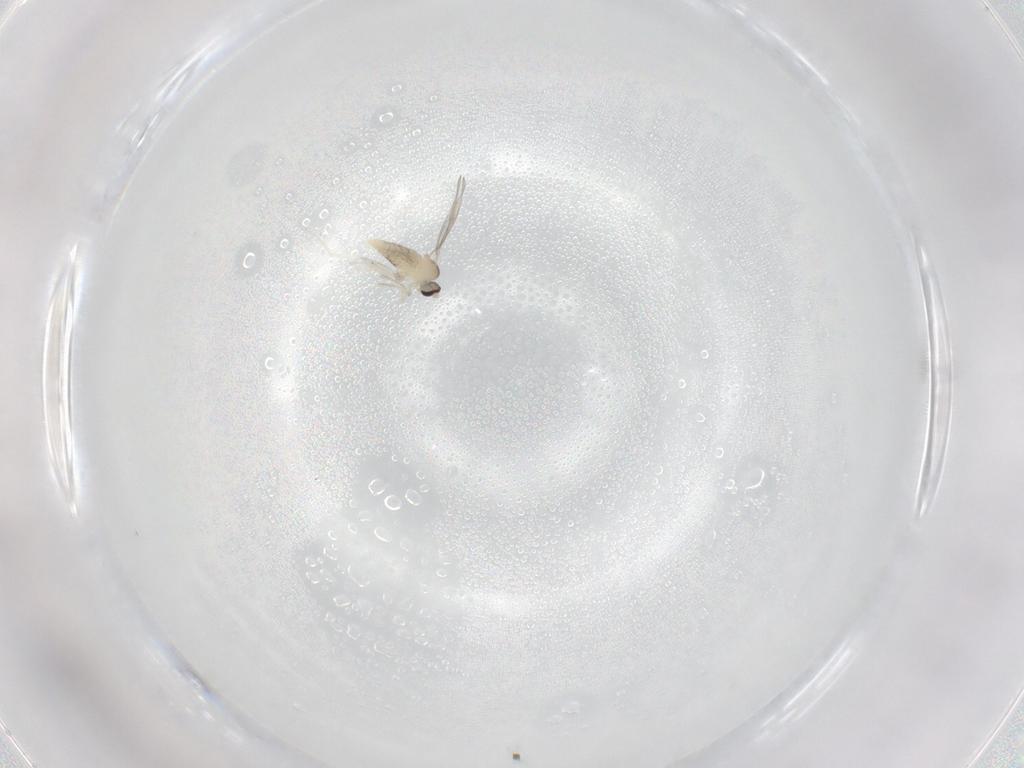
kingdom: Animalia
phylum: Arthropoda
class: Insecta
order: Diptera
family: Cecidomyiidae
